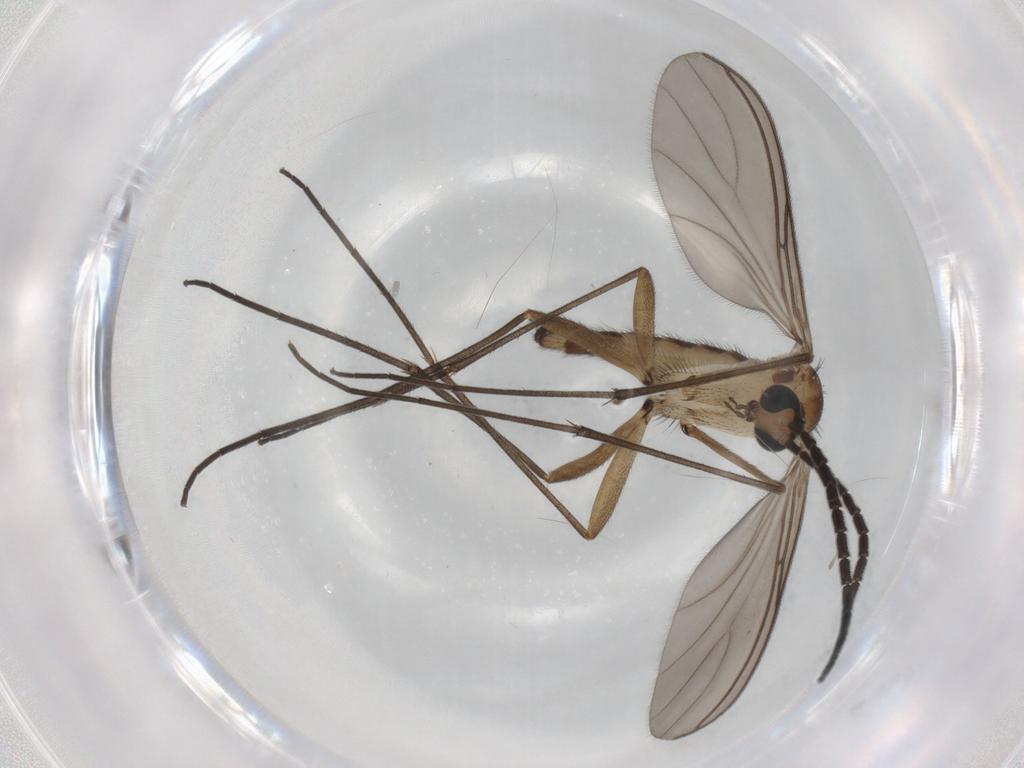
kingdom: Animalia
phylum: Arthropoda
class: Insecta
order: Diptera
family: Sciaridae
